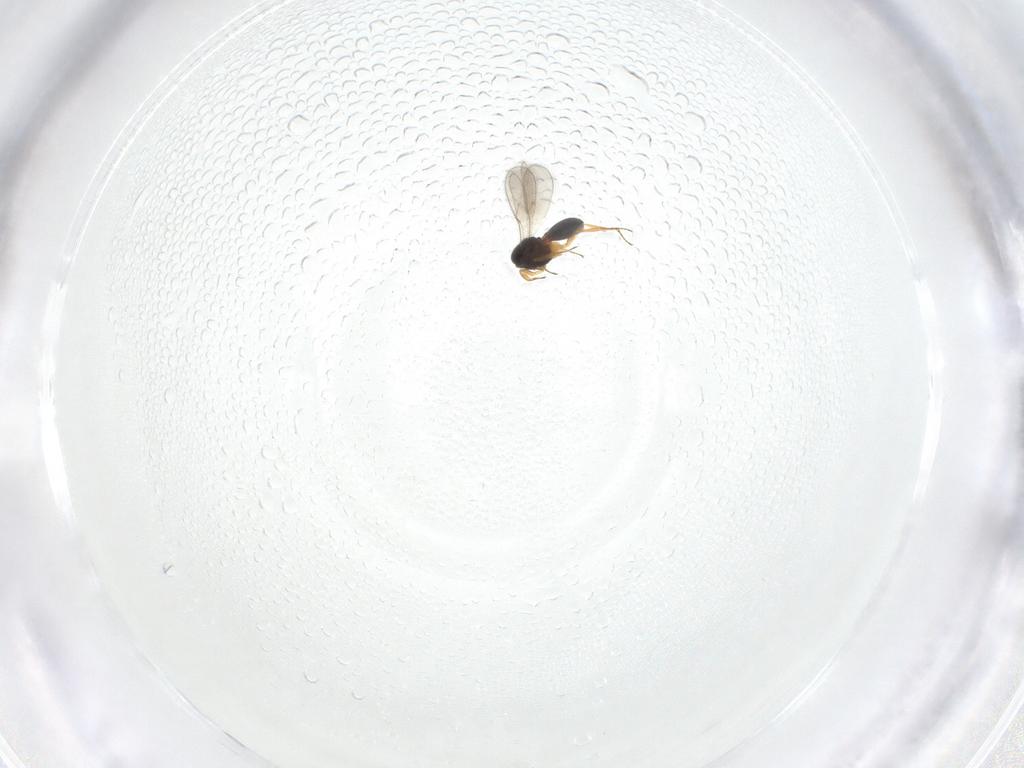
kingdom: Animalia
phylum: Arthropoda
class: Insecta
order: Hymenoptera
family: Scelionidae
